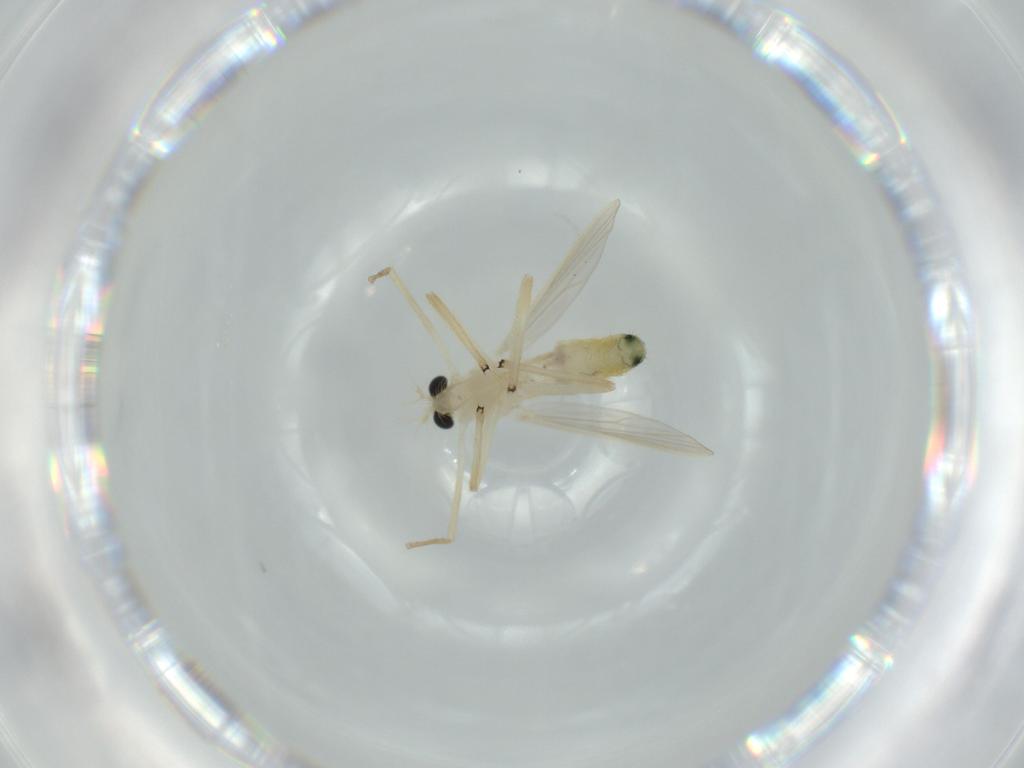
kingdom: Animalia
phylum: Arthropoda
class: Insecta
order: Diptera
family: Chironomidae
